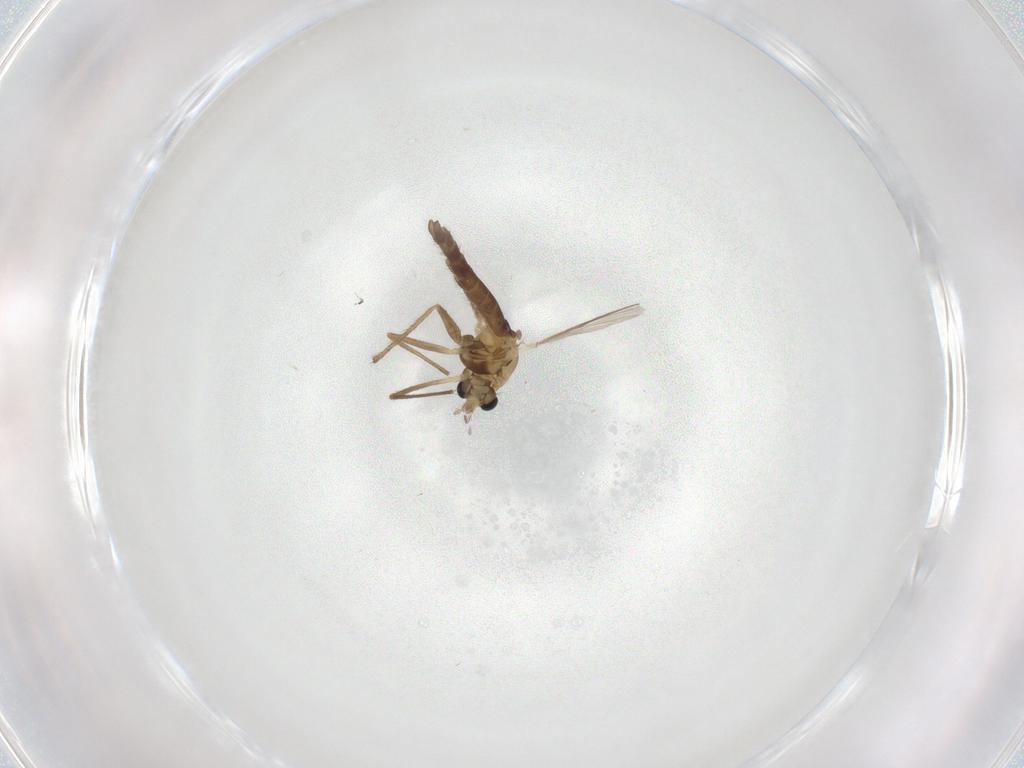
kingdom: Animalia
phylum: Arthropoda
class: Insecta
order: Diptera
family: Chironomidae
